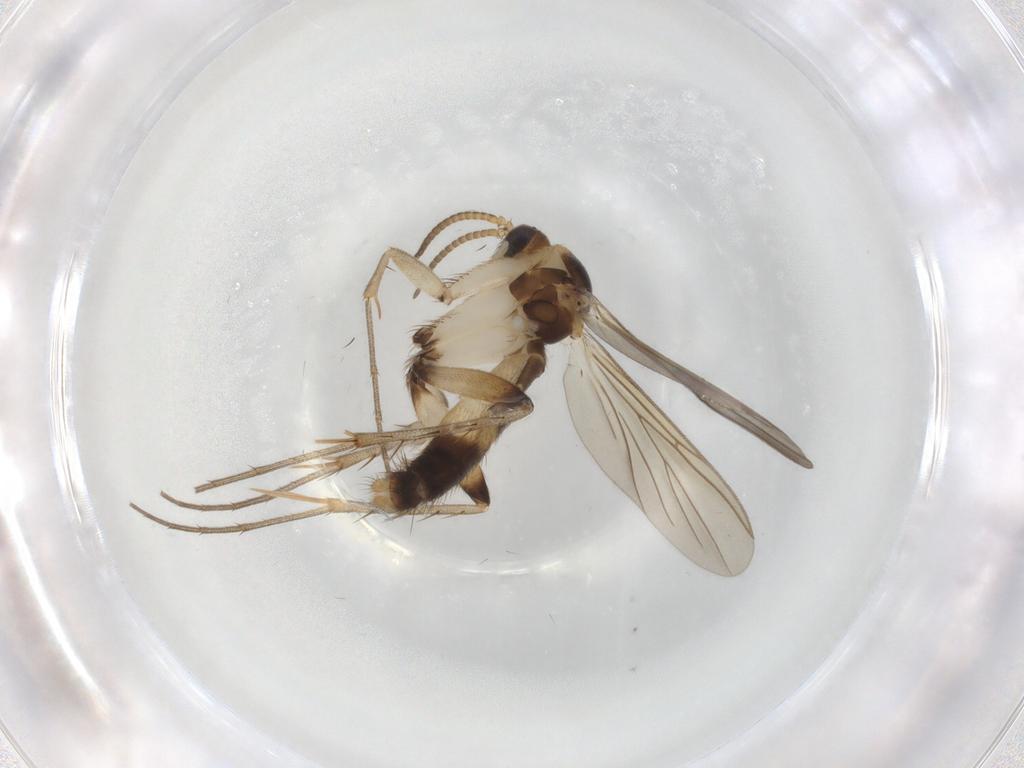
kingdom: Animalia
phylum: Arthropoda
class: Insecta
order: Diptera
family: Mycetophilidae
